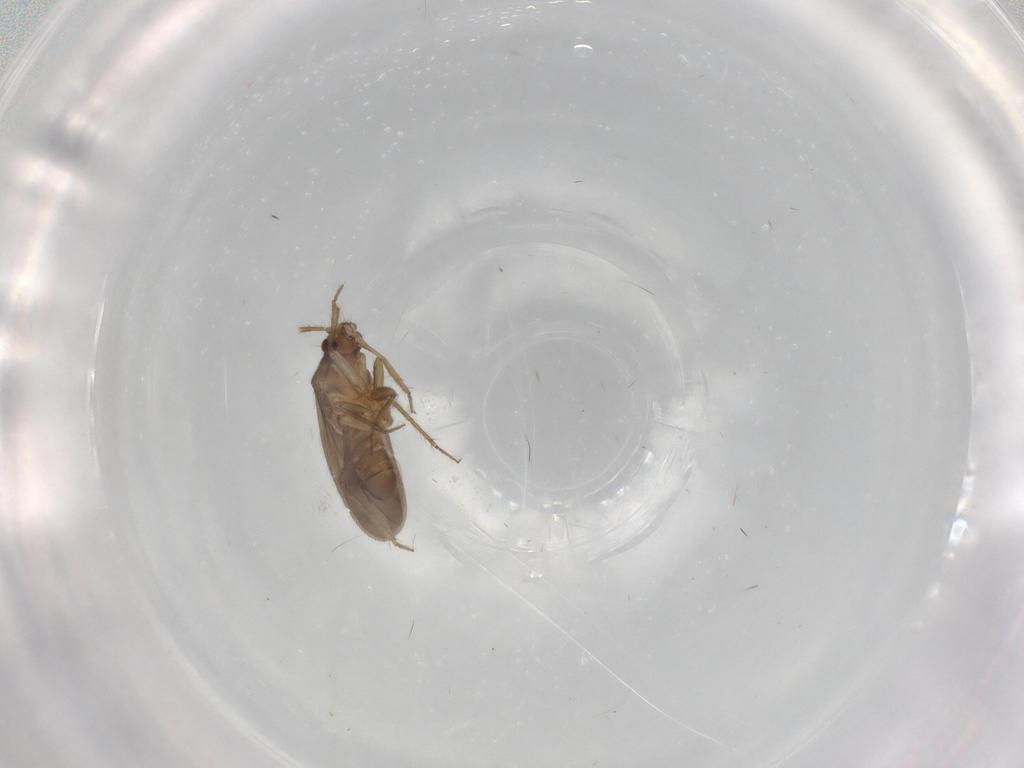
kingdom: Animalia
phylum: Arthropoda
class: Insecta
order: Hemiptera
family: Ceratocombidae
